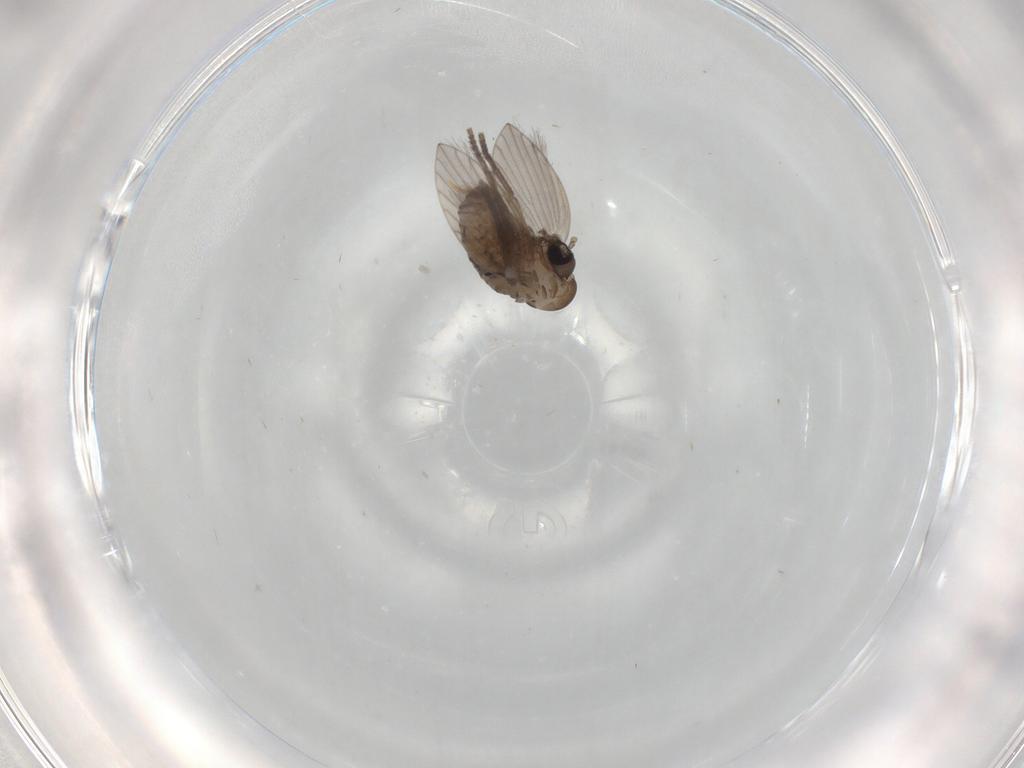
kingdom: Animalia
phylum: Arthropoda
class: Insecta
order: Diptera
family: Psychodidae
